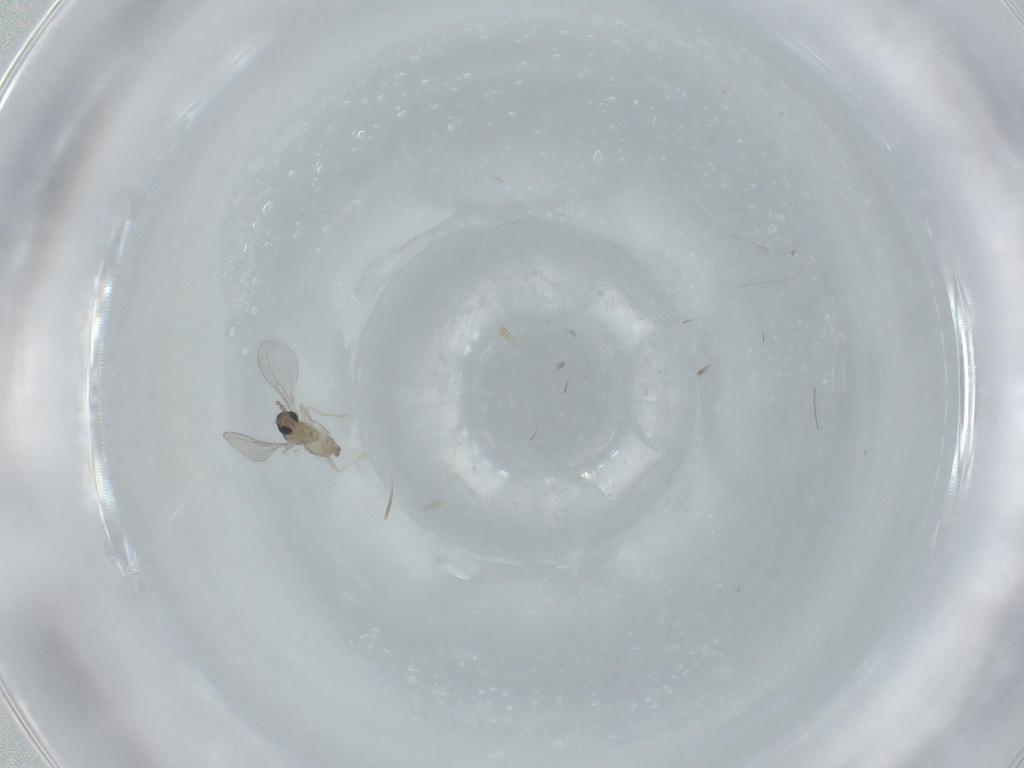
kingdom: Animalia
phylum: Arthropoda
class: Insecta
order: Diptera
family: Cecidomyiidae
